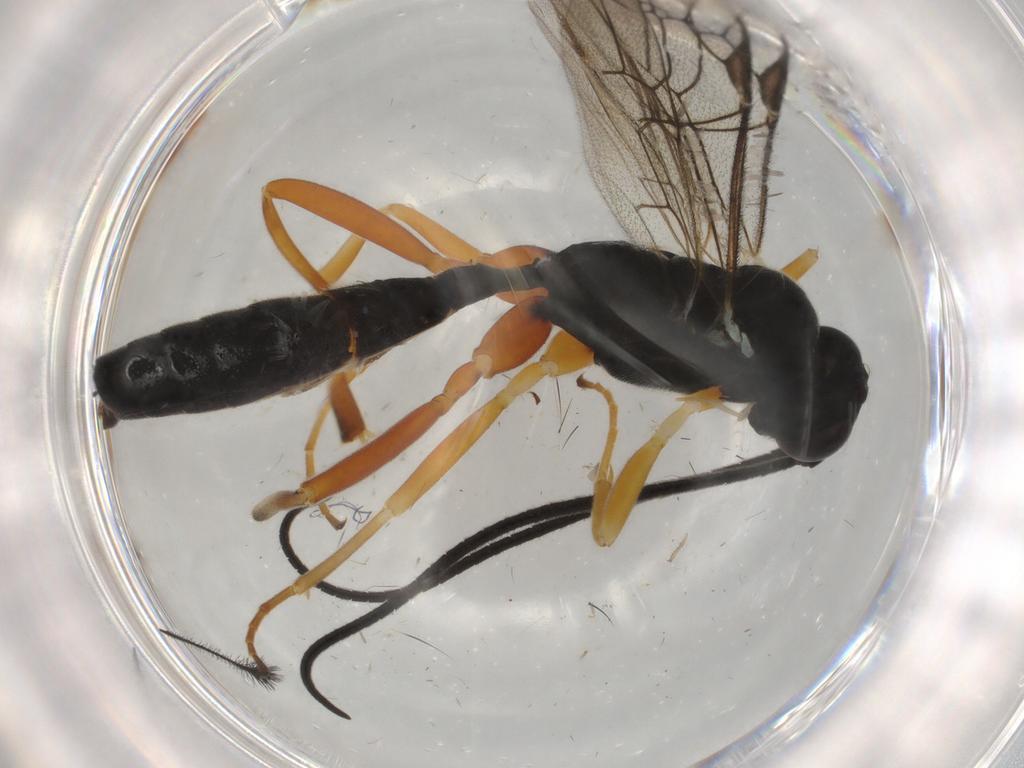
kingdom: Animalia
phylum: Arthropoda
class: Insecta
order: Hymenoptera
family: Ichneumonidae
